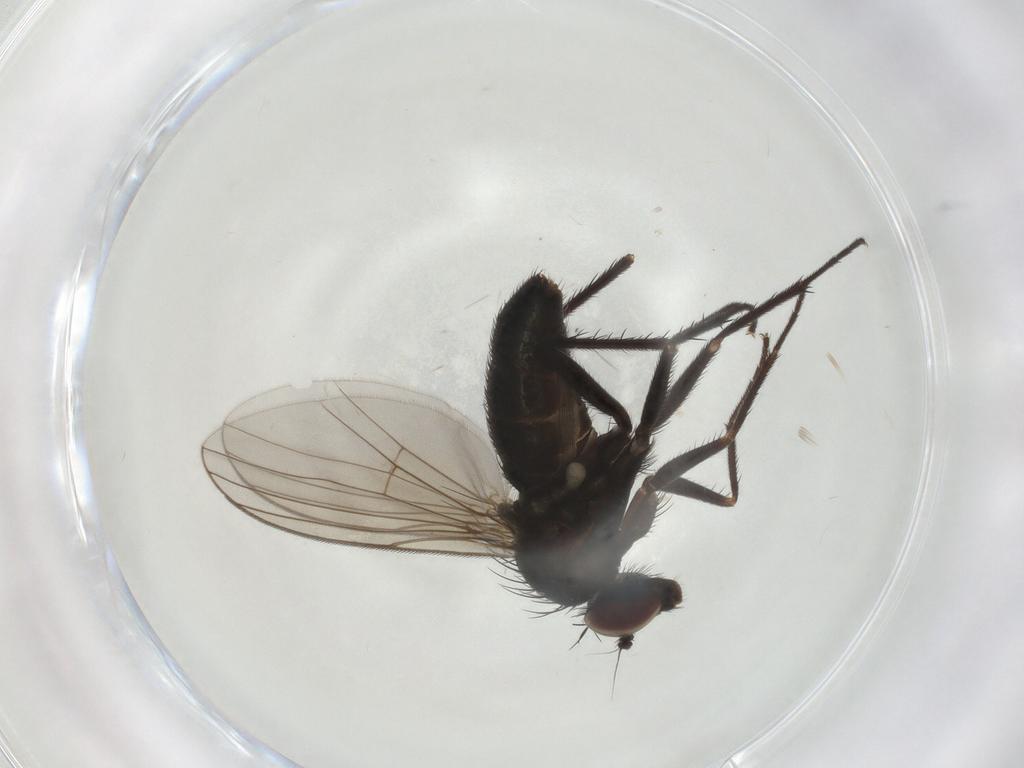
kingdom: Animalia
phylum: Arthropoda
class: Insecta
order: Diptera
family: Dolichopodidae
